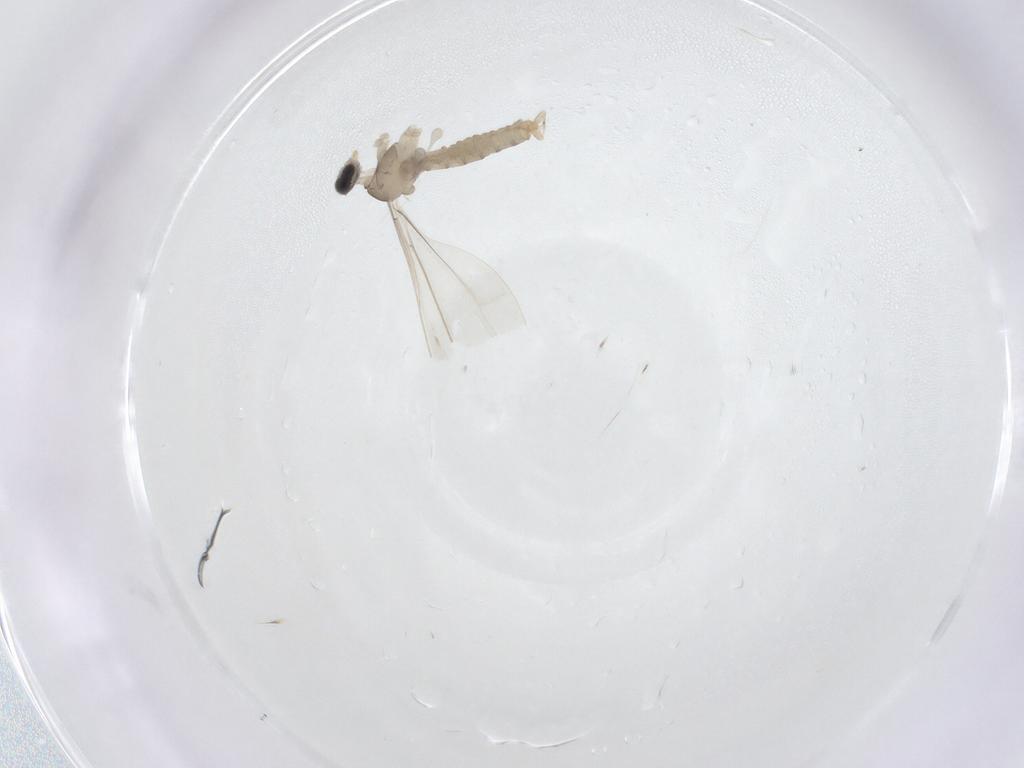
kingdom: Animalia
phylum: Arthropoda
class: Insecta
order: Diptera
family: Cecidomyiidae
